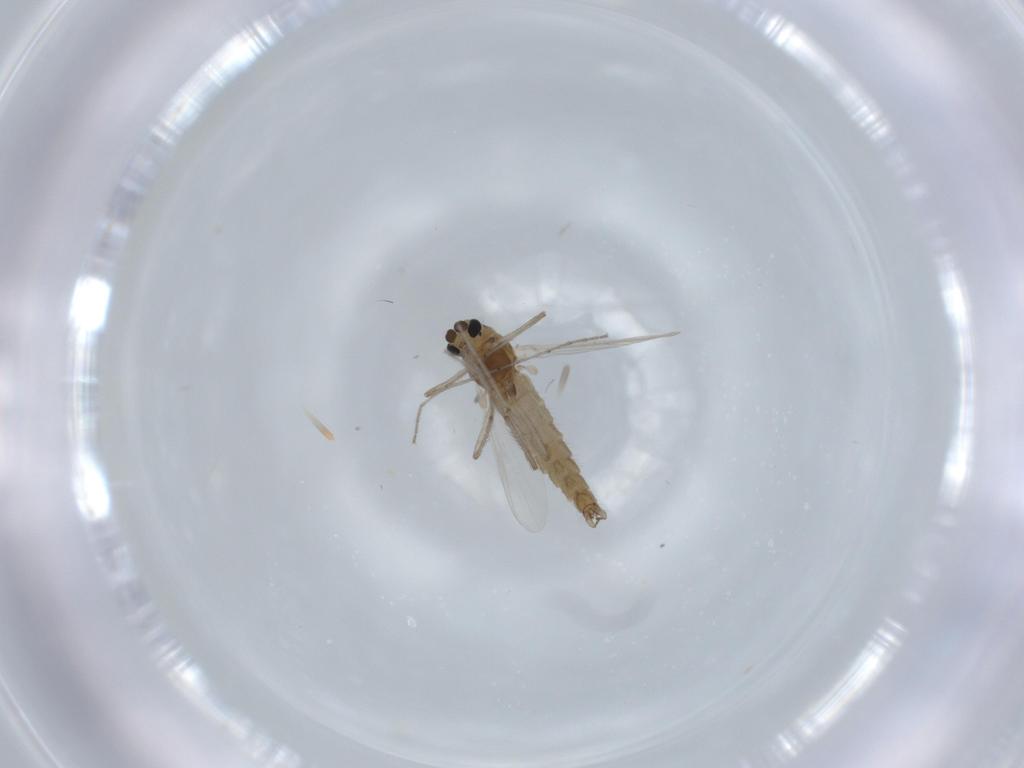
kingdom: Animalia
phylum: Arthropoda
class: Insecta
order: Diptera
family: Chironomidae
